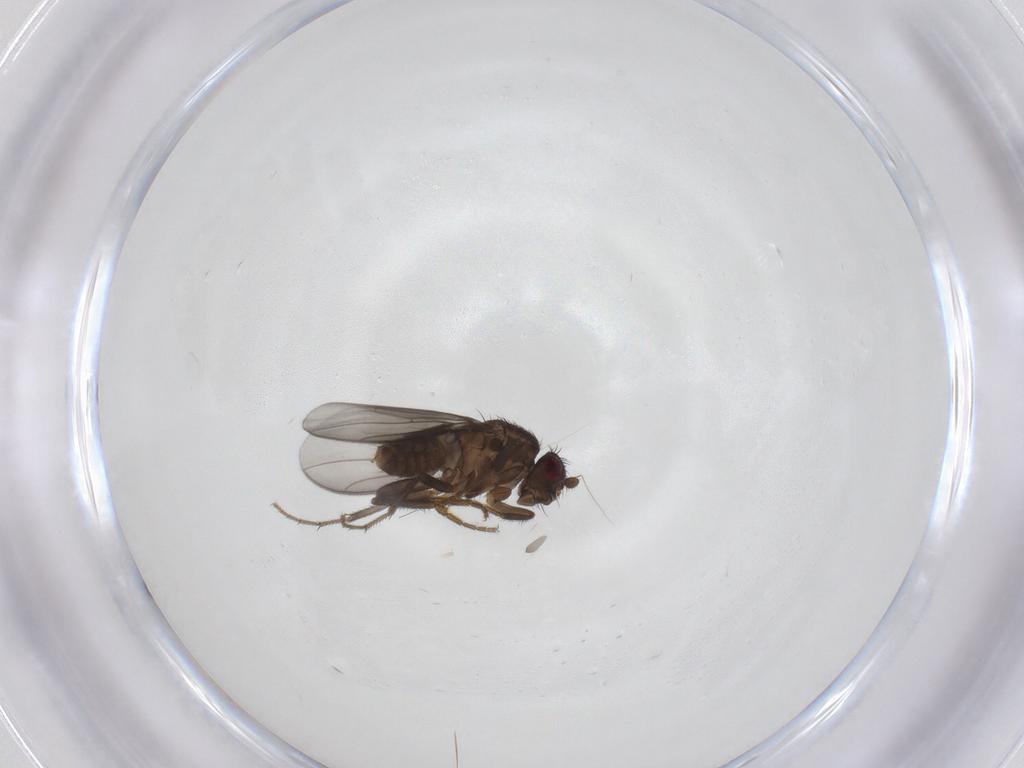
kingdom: Animalia
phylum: Arthropoda
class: Insecta
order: Diptera
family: Sphaeroceridae
